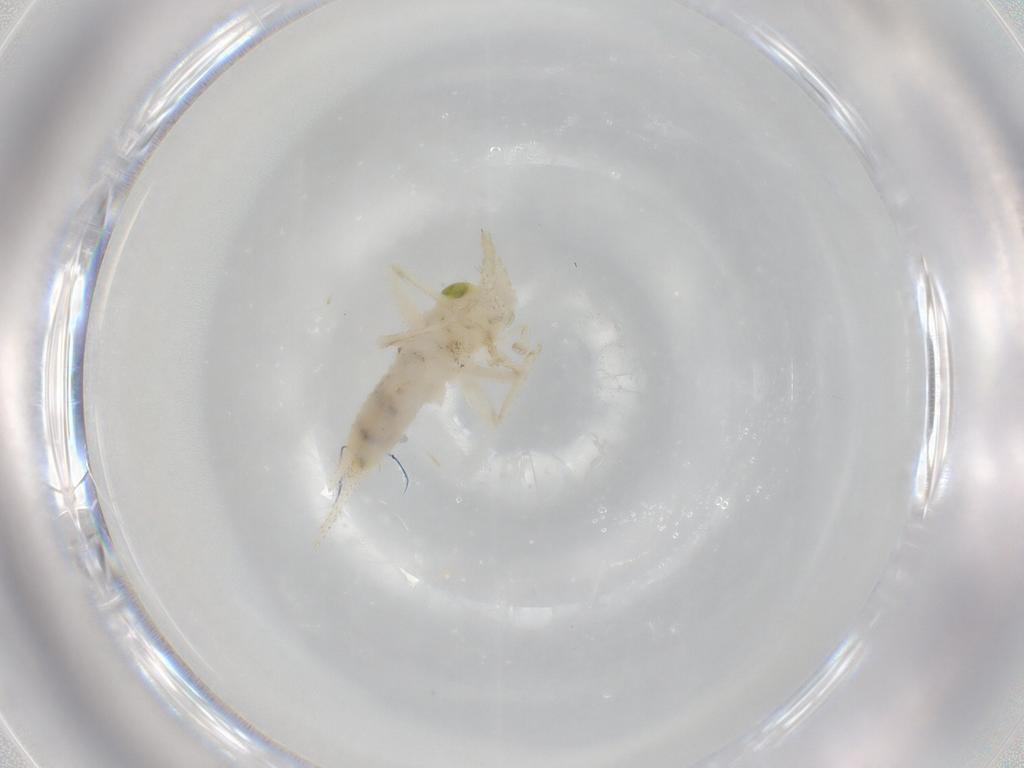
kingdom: Animalia
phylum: Arthropoda
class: Insecta
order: Orthoptera
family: Trigonidiidae
